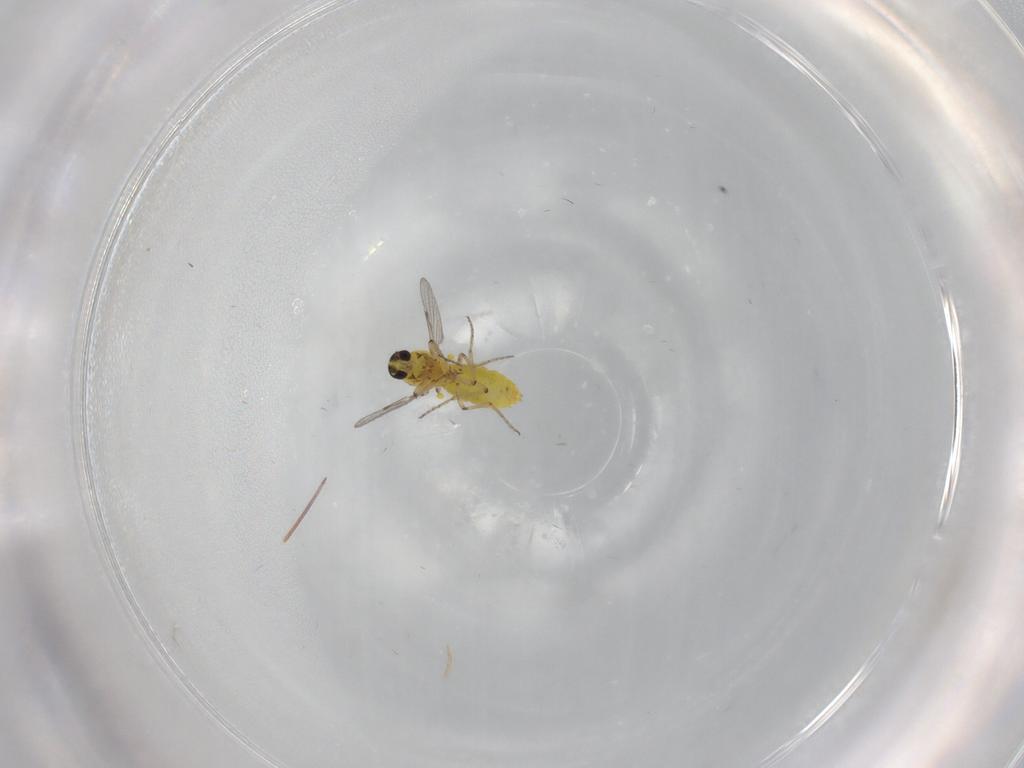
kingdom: Animalia
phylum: Arthropoda
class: Insecta
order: Diptera
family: Ceratopogonidae
